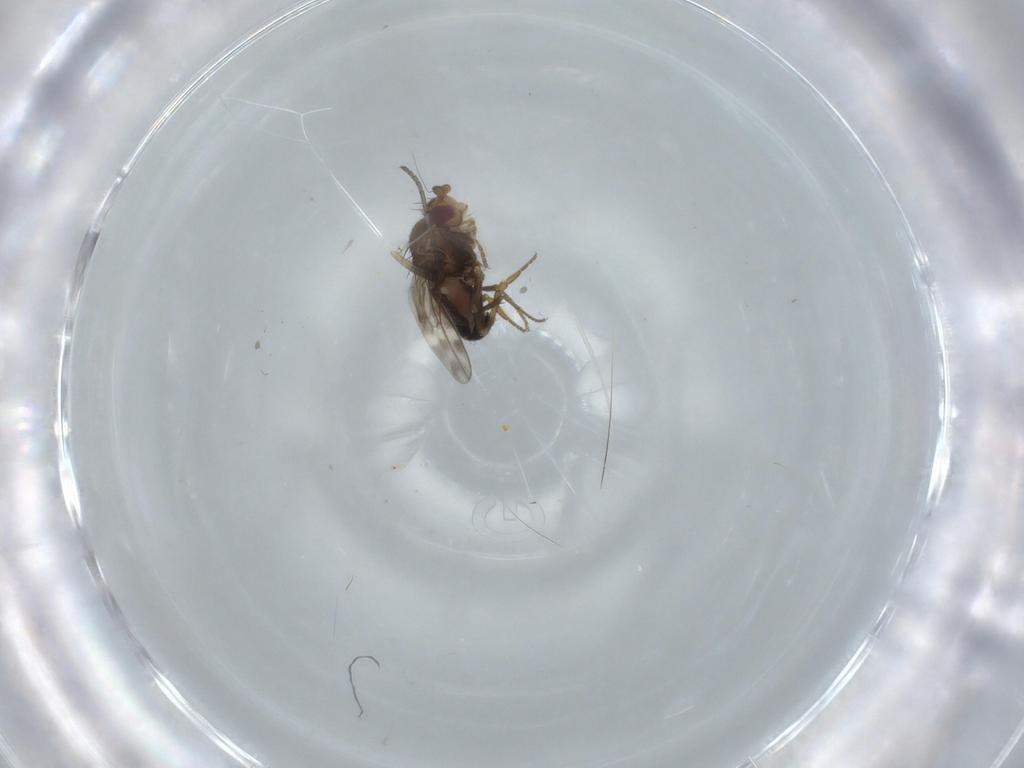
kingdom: Animalia
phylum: Arthropoda
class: Insecta
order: Diptera
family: Sphaeroceridae
